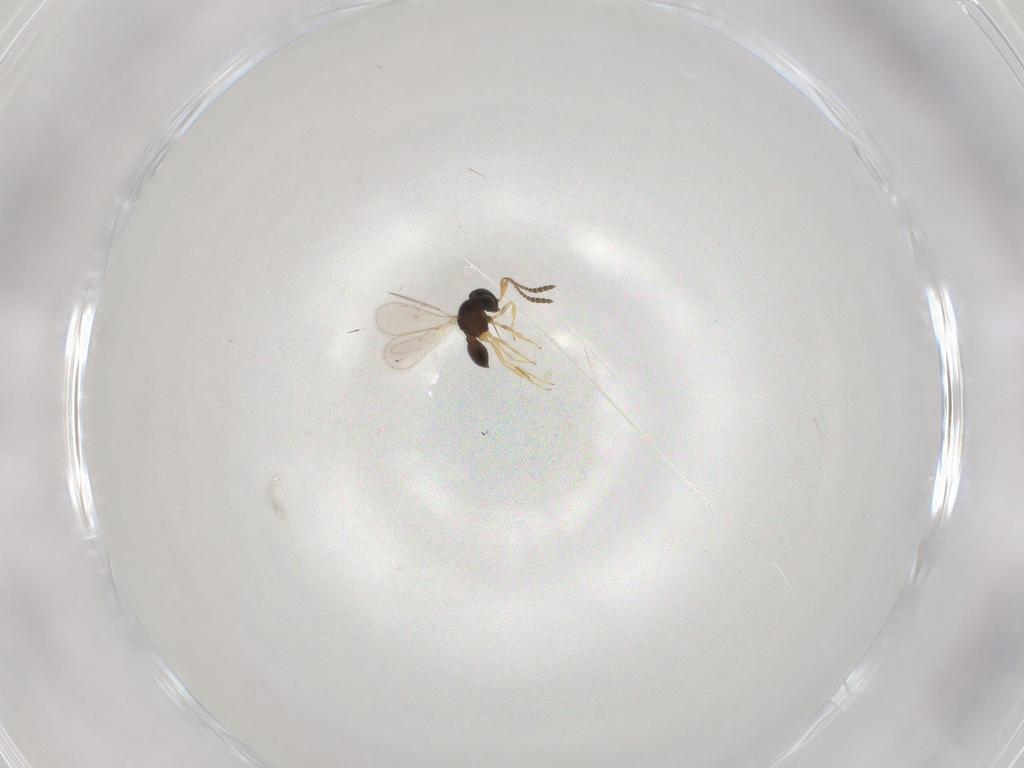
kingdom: Animalia
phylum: Arthropoda
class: Insecta
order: Hymenoptera
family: Scelionidae
